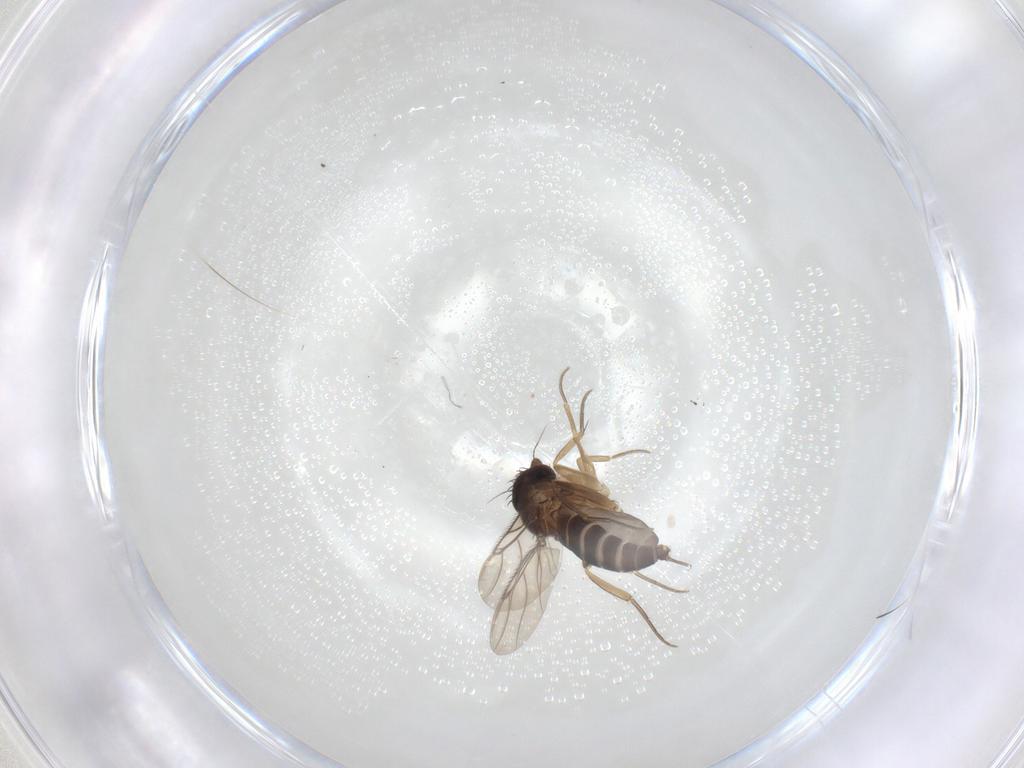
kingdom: Animalia
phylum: Arthropoda
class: Insecta
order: Diptera
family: Phoridae
